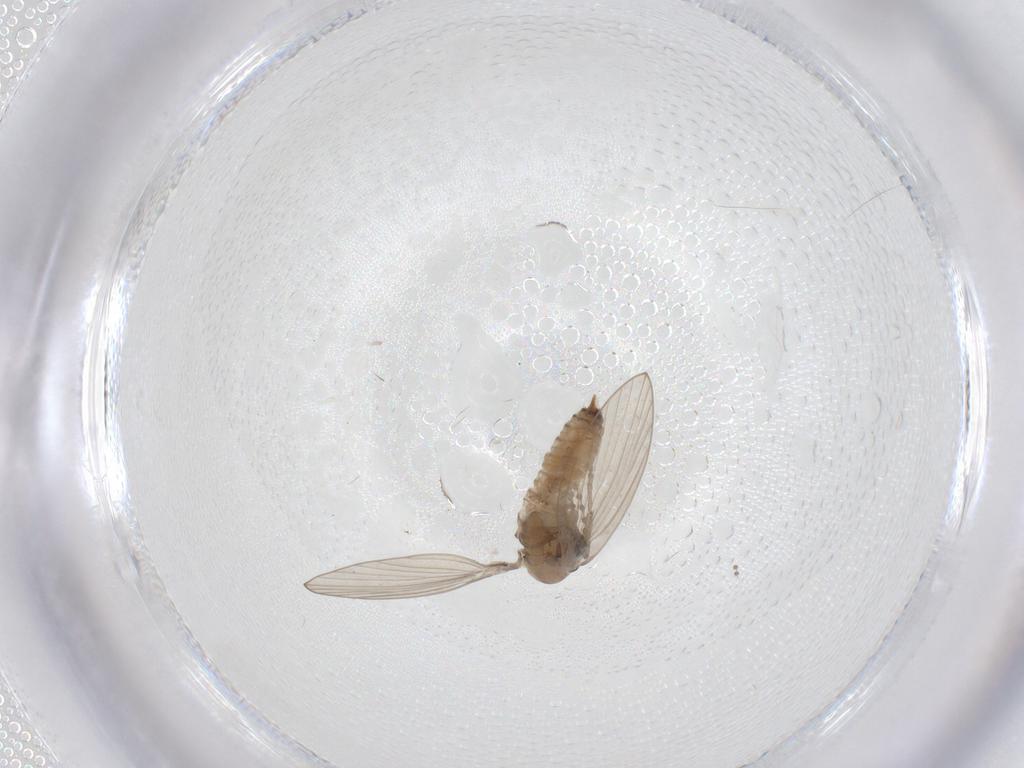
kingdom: Animalia
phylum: Arthropoda
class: Insecta
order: Diptera
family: Psychodidae
